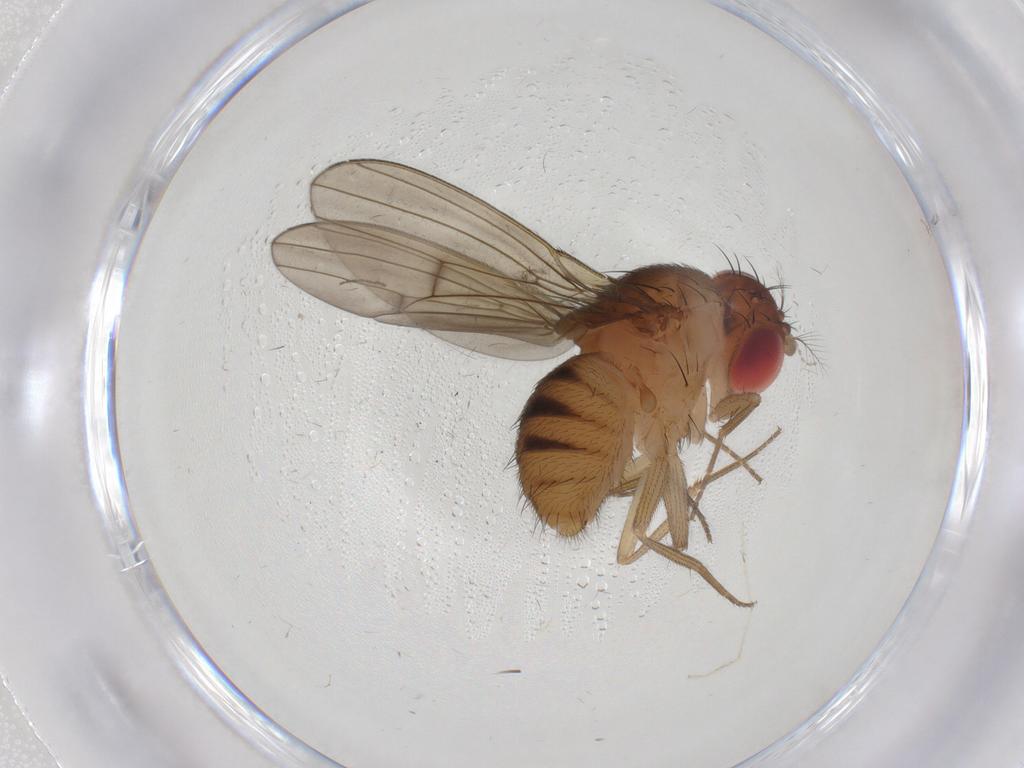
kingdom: Animalia
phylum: Arthropoda
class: Insecta
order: Diptera
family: Drosophilidae
